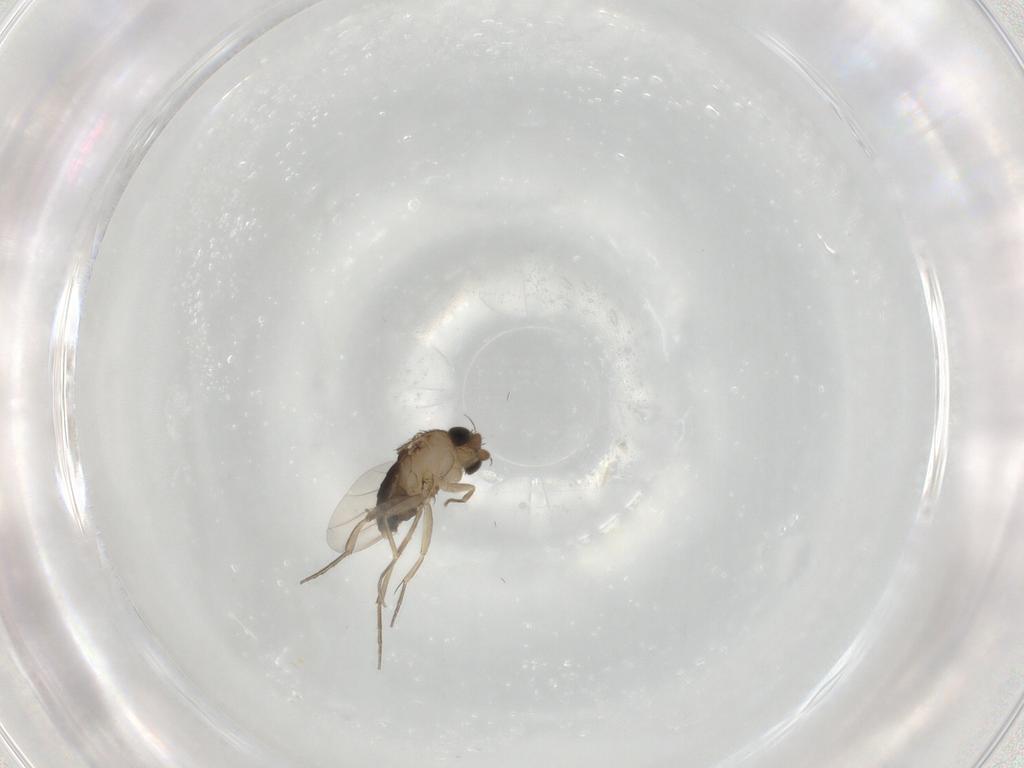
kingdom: Animalia
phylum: Arthropoda
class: Insecta
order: Diptera
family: Phoridae
